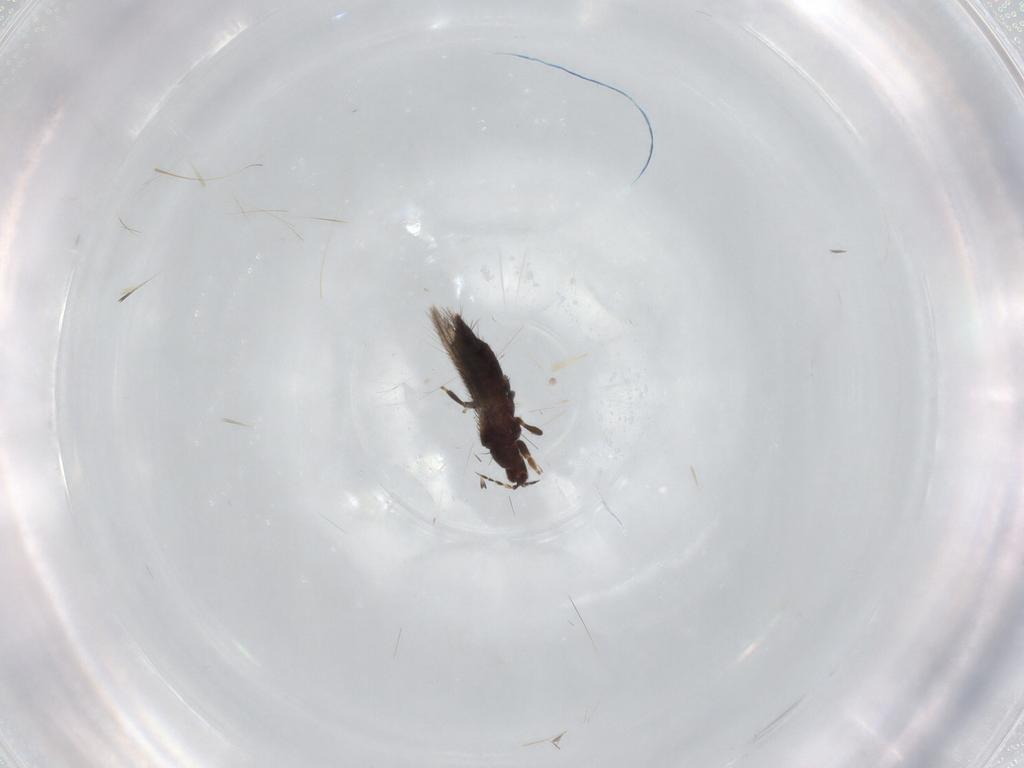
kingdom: Animalia
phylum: Arthropoda
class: Insecta
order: Thysanoptera
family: Thripidae
